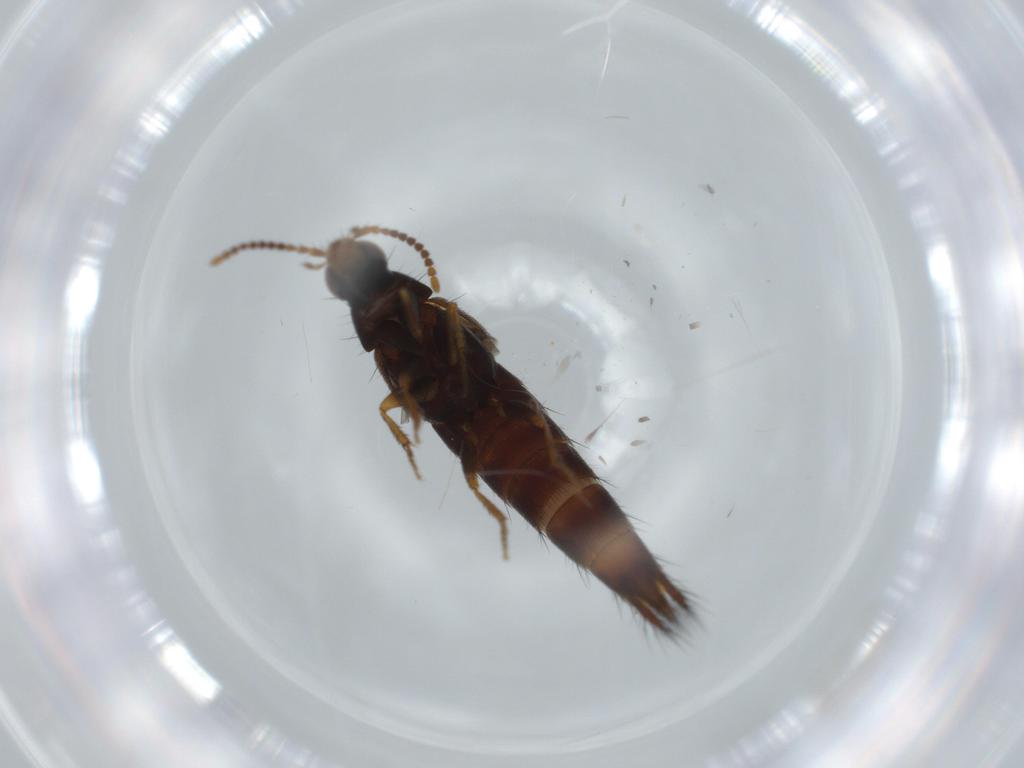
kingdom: Animalia
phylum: Arthropoda
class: Insecta
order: Coleoptera
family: Staphylinidae
